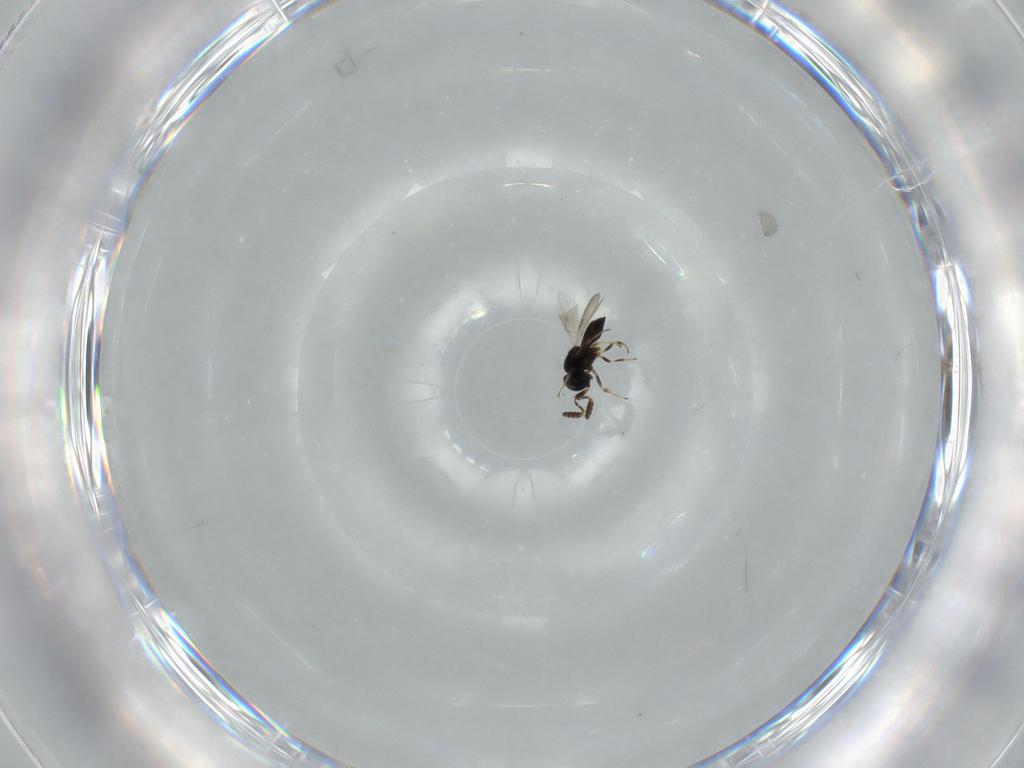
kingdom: Animalia
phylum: Arthropoda
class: Insecta
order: Hymenoptera
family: Scelionidae
